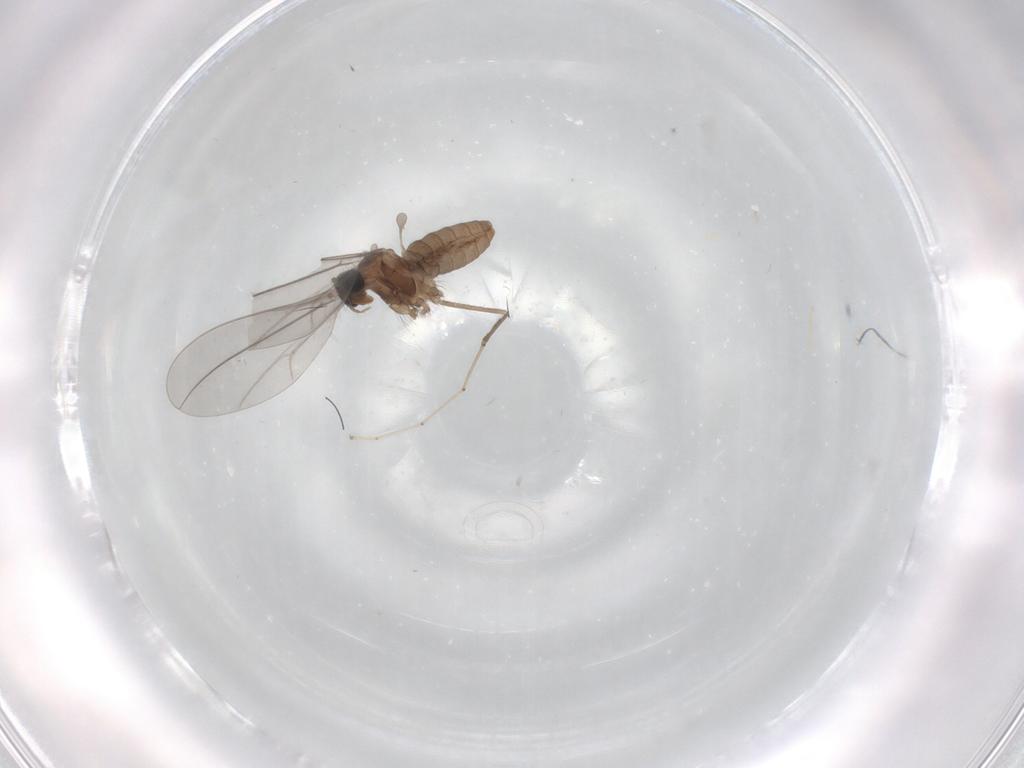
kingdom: Animalia
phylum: Arthropoda
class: Insecta
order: Diptera
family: Cecidomyiidae
